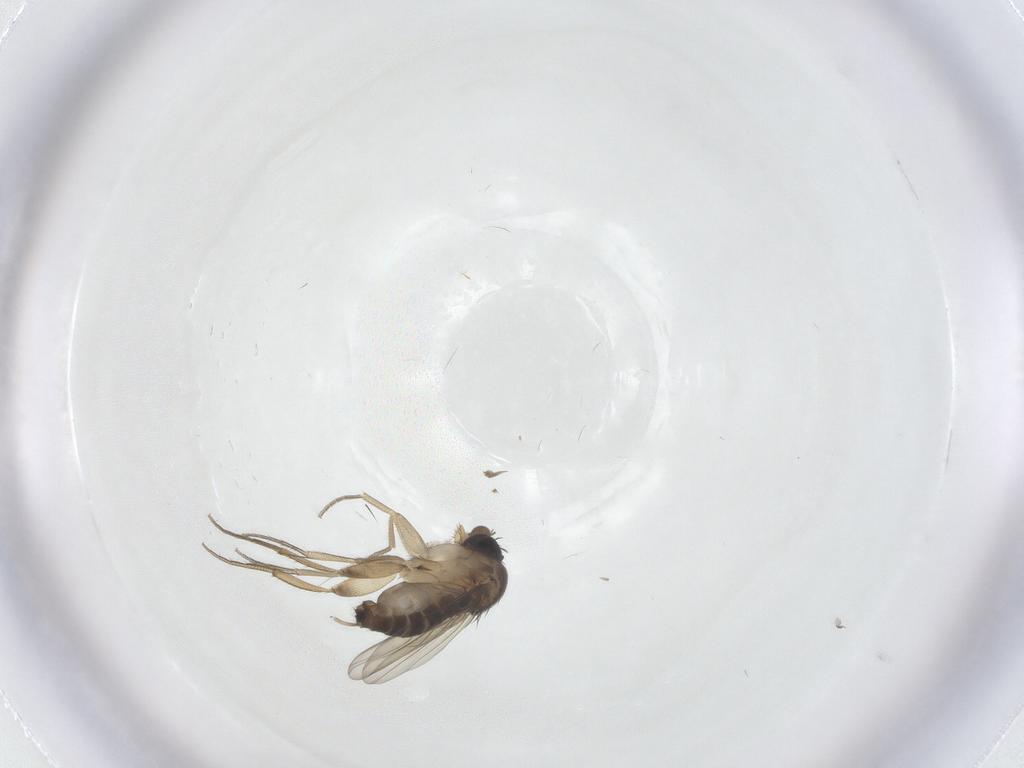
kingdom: Animalia
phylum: Arthropoda
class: Insecta
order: Diptera
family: Phoridae
